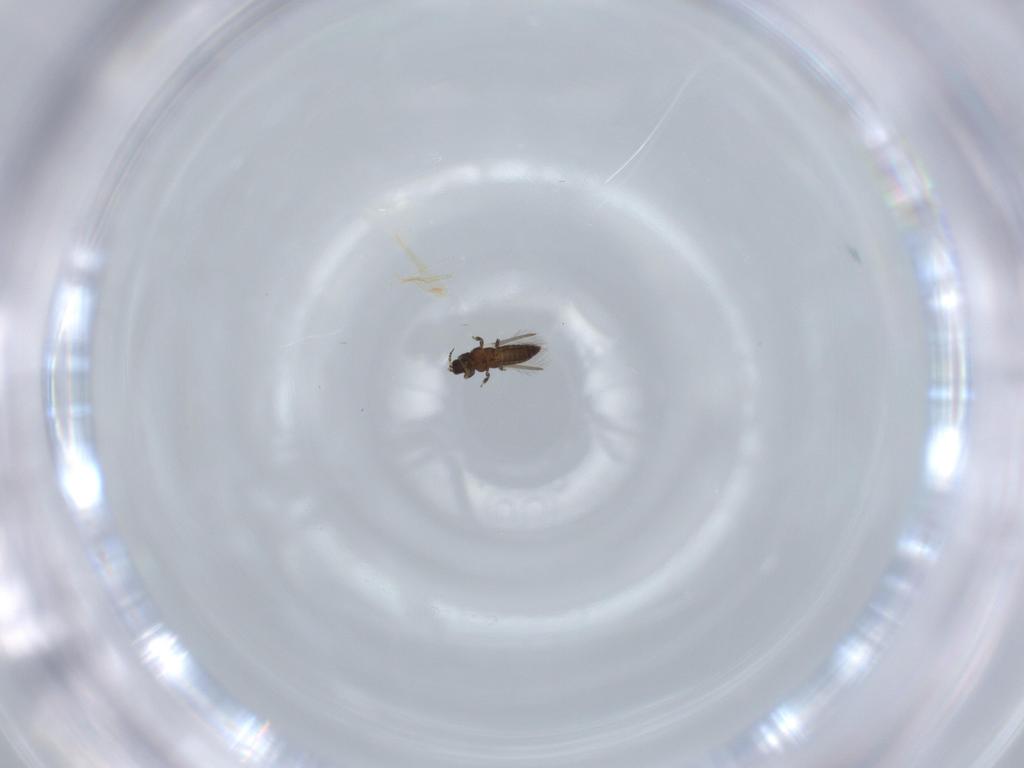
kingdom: Animalia
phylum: Arthropoda
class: Insecta
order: Thysanoptera
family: Heterothripidae
